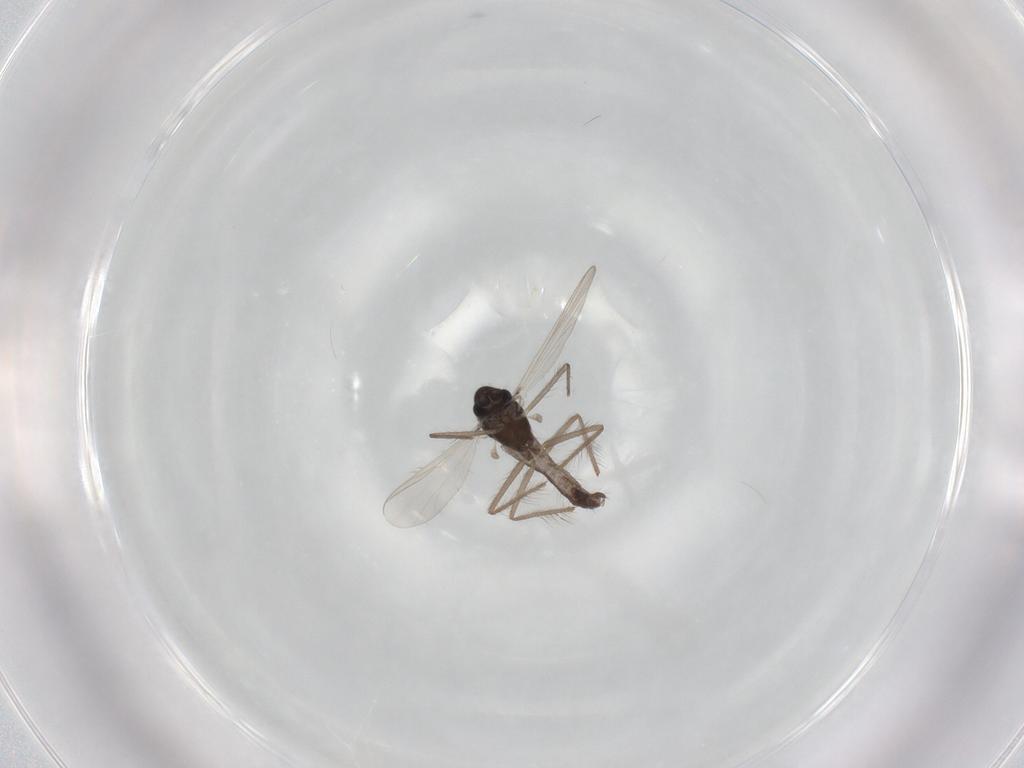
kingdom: Animalia
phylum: Arthropoda
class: Insecta
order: Diptera
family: Chironomidae
